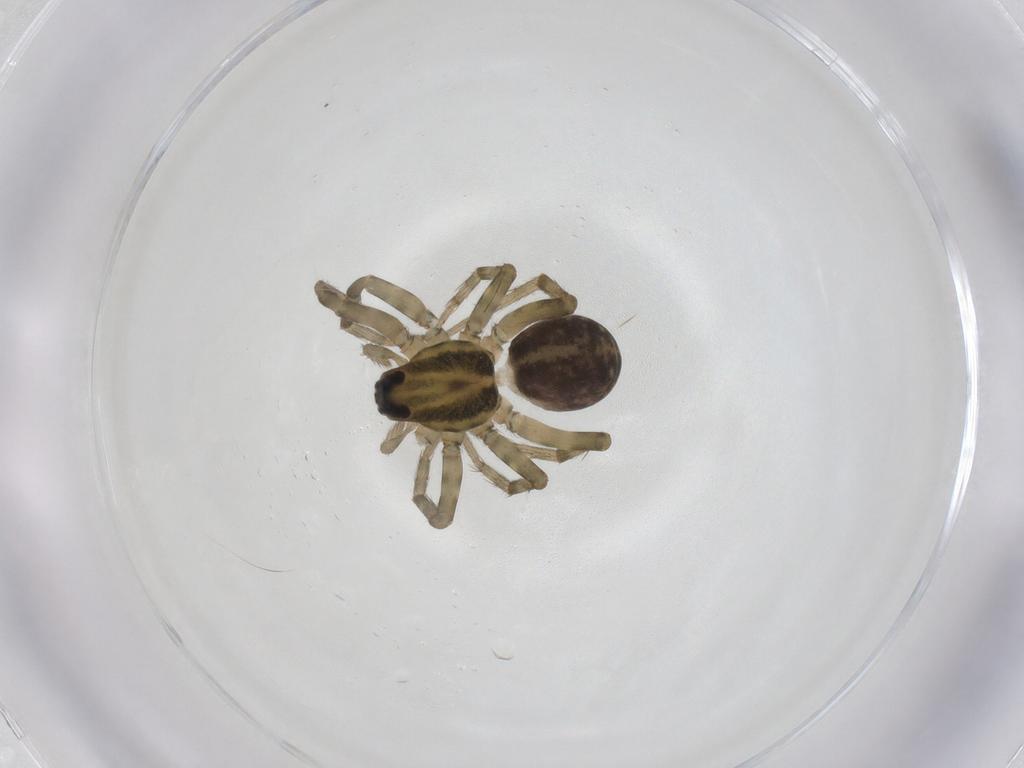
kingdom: Animalia
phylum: Arthropoda
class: Arachnida
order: Araneae
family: Lycosidae
